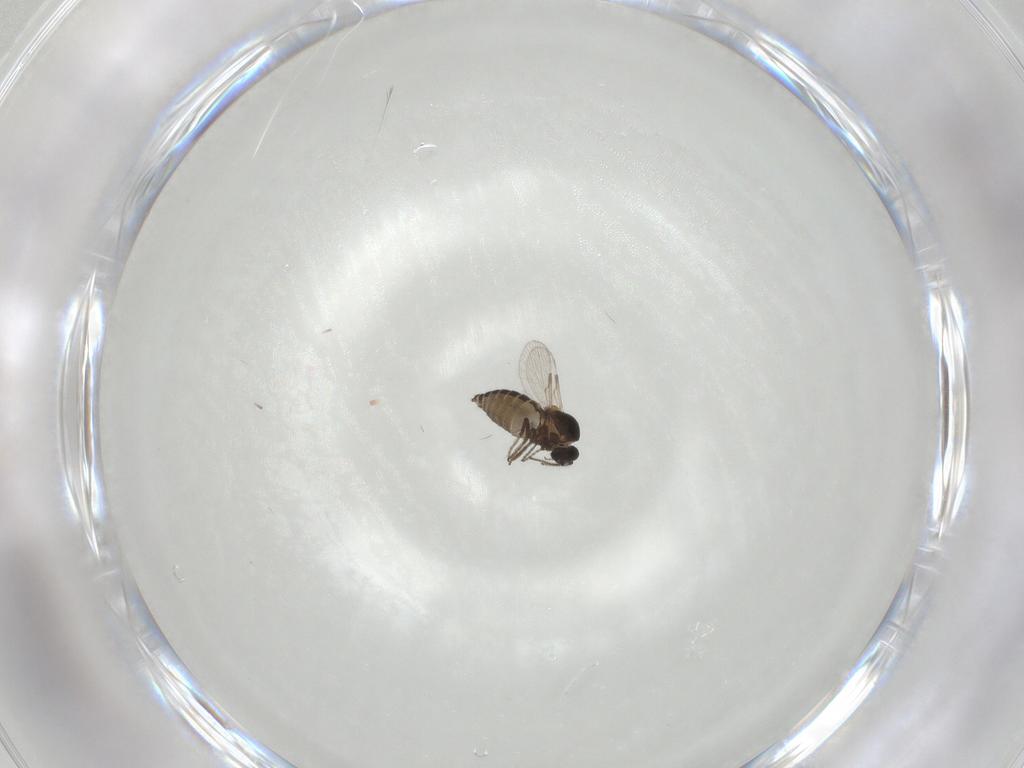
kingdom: Animalia
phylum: Arthropoda
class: Insecta
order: Diptera
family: Ceratopogonidae
